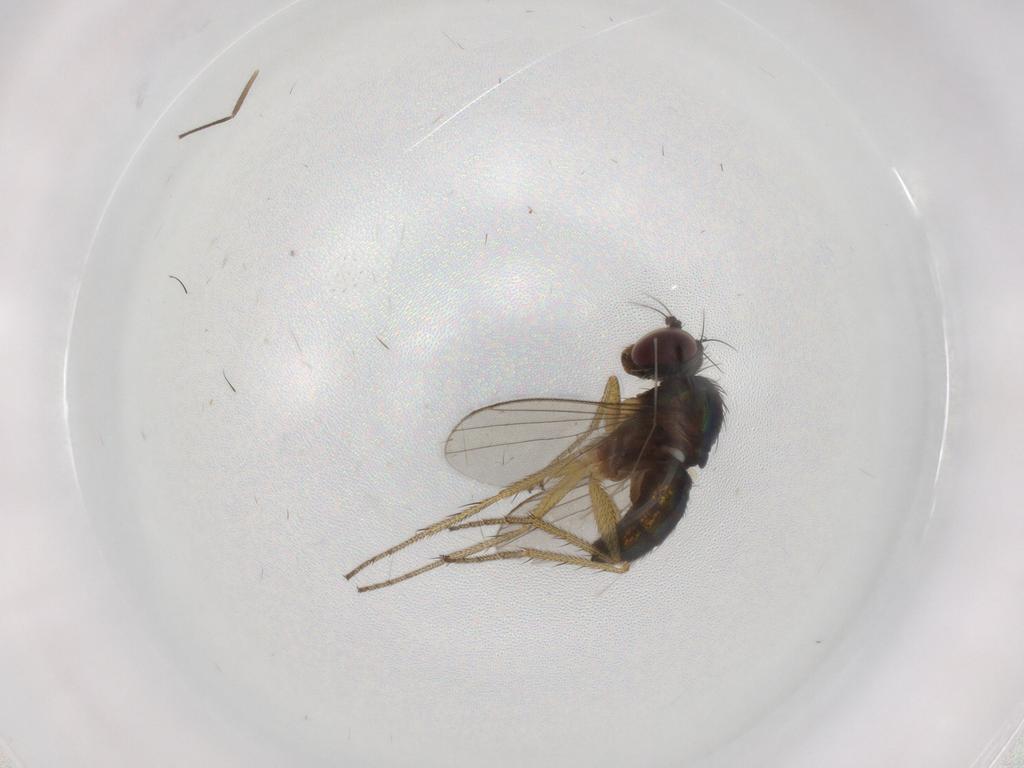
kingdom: Animalia
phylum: Arthropoda
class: Insecta
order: Diptera
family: Chironomidae
